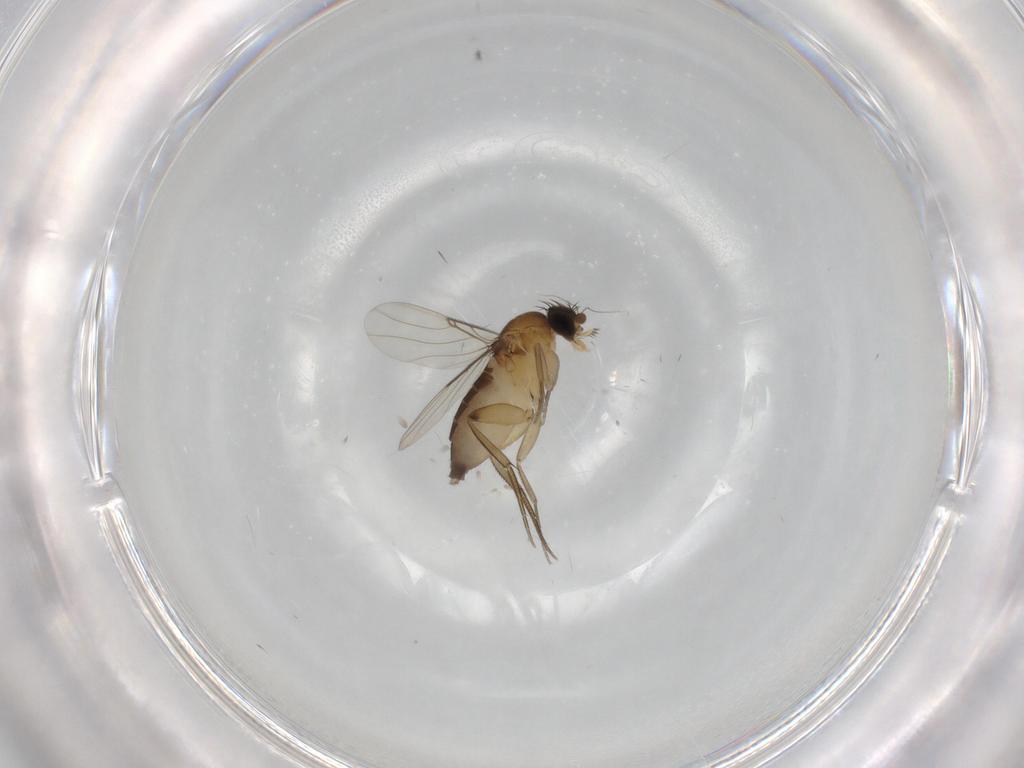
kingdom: Animalia
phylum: Arthropoda
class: Insecta
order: Diptera
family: Phoridae
